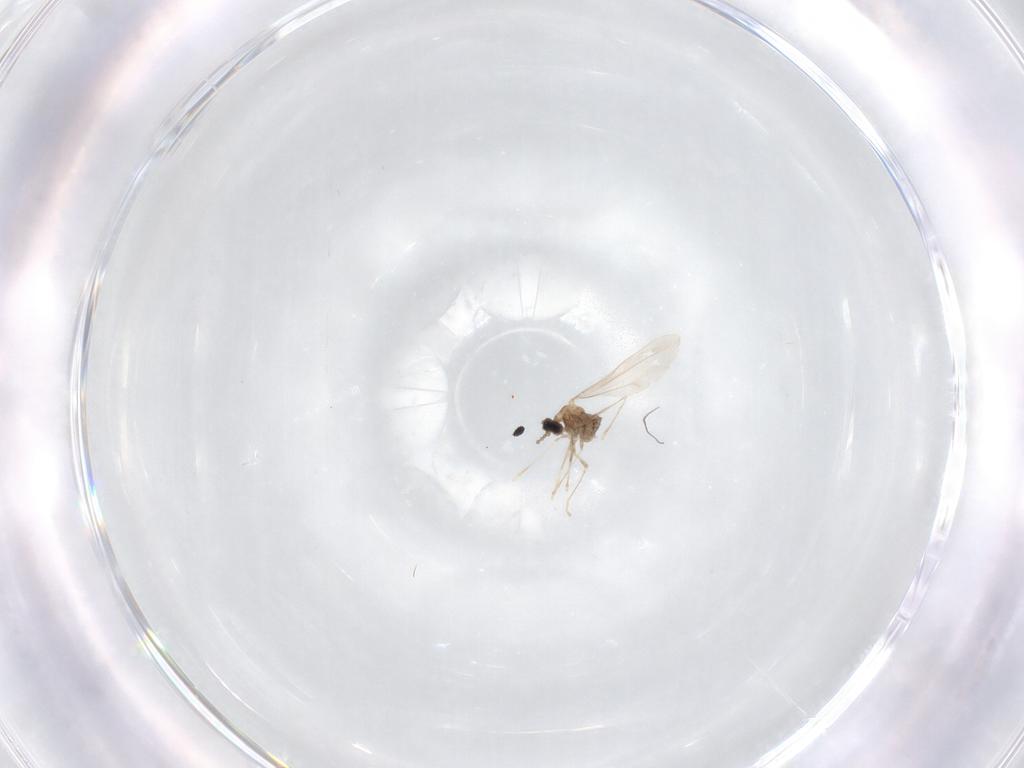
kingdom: Animalia
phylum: Arthropoda
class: Insecta
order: Diptera
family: Cecidomyiidae
